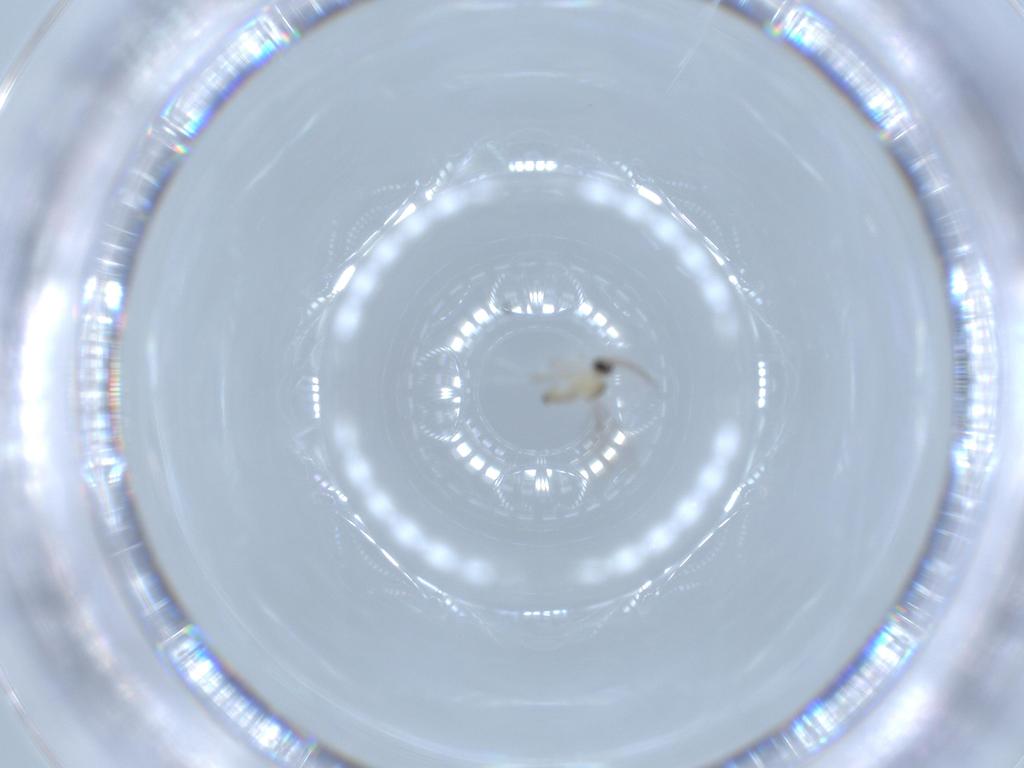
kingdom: Animalia
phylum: Arthropoda
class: Insecta
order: Diptera
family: Cecidomyiidae
